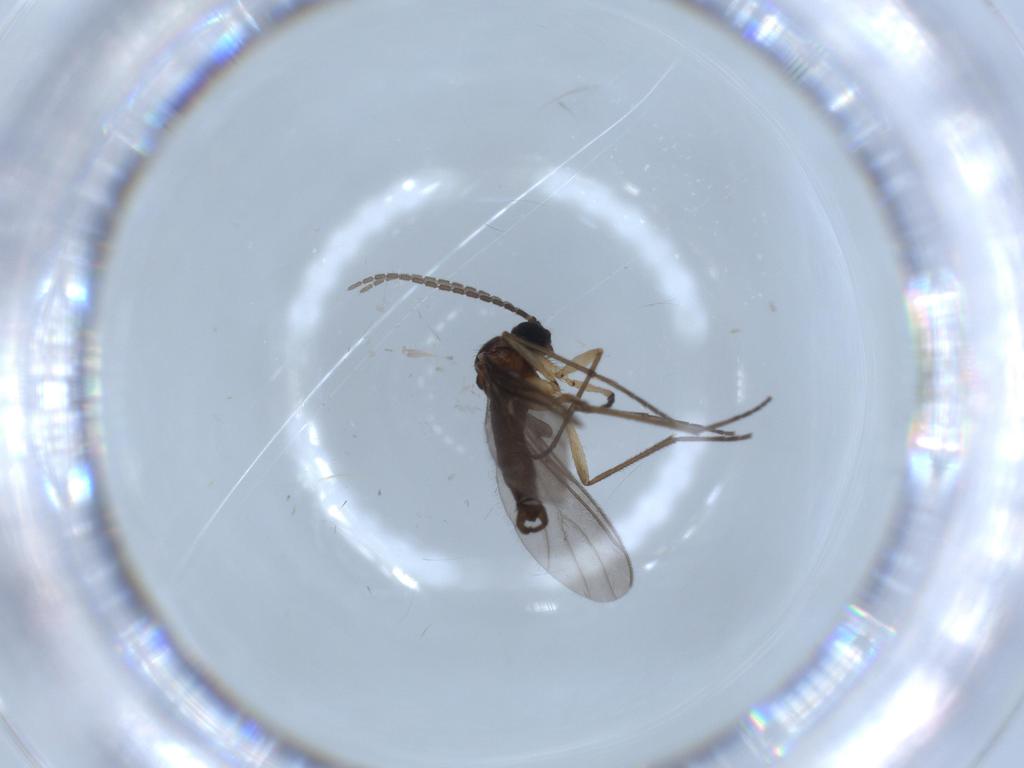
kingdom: Animalia
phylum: Arthropoda
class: Insecta
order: Diptera
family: Sciaridae
